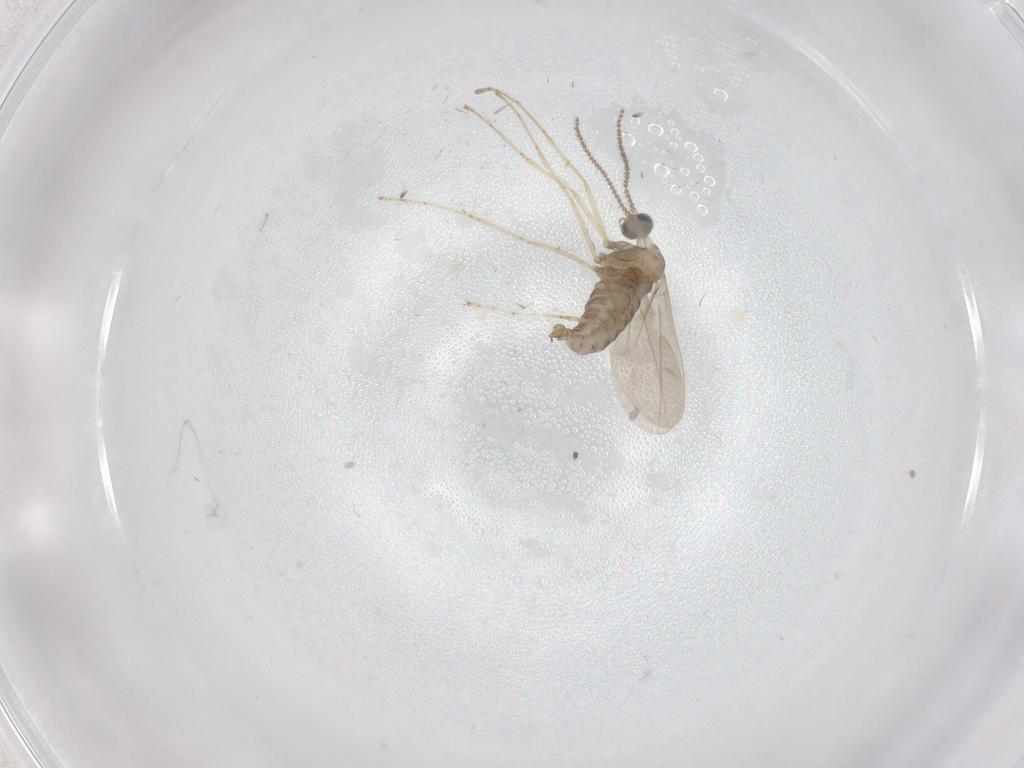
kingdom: Animalia
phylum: Arthropoda
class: Insecta
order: Diptera
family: Cecidomyiidae
